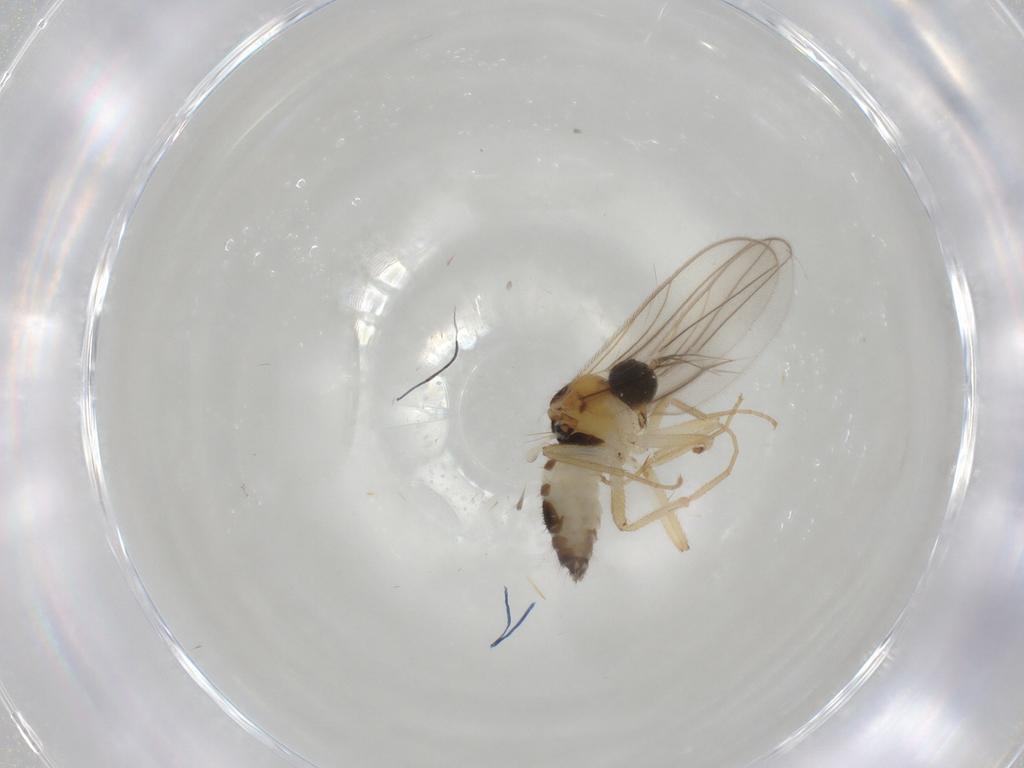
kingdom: Animalia
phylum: Arthropoda
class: Insecta
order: Diptera
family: Hybotidae
